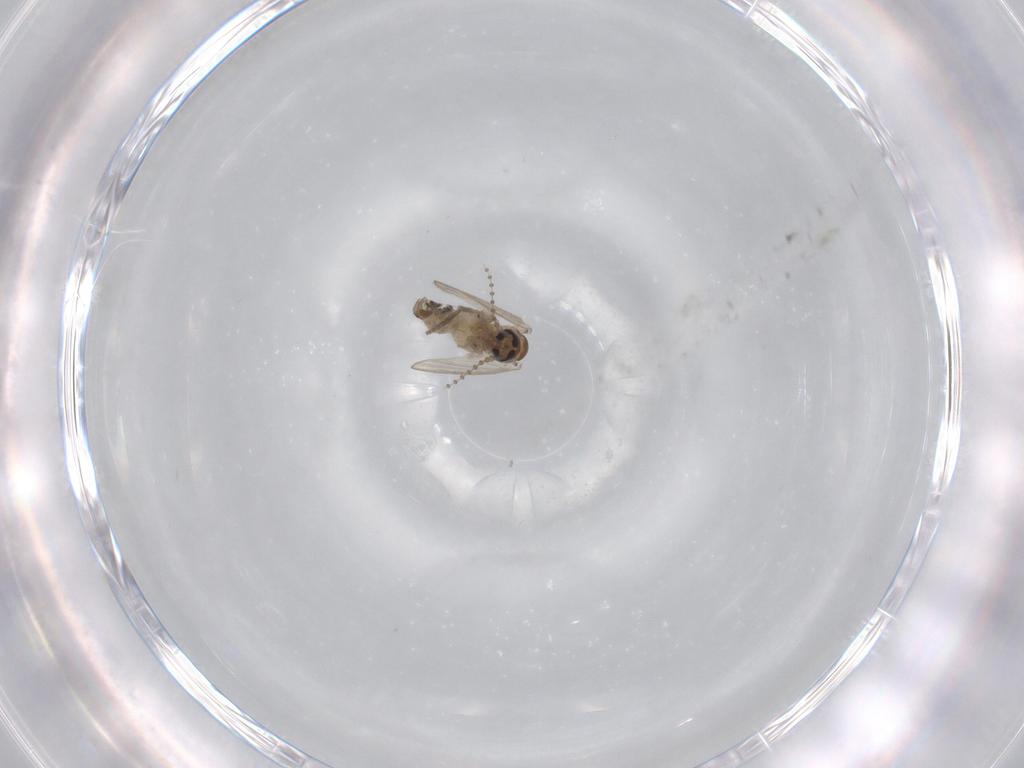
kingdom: Animalia
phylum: Arthropoda
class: Insecta
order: Diptera
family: Psychodidae
